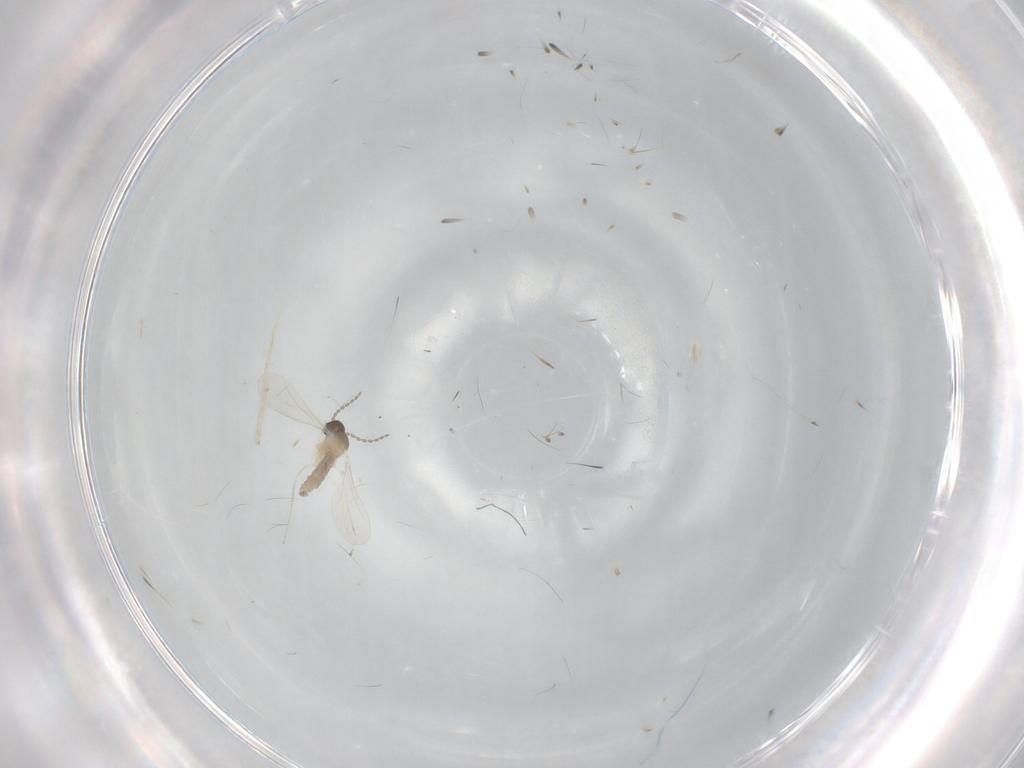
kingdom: Animalia
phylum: Arthropoda
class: Insecta
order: Diptera
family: Cecidomyiidae
